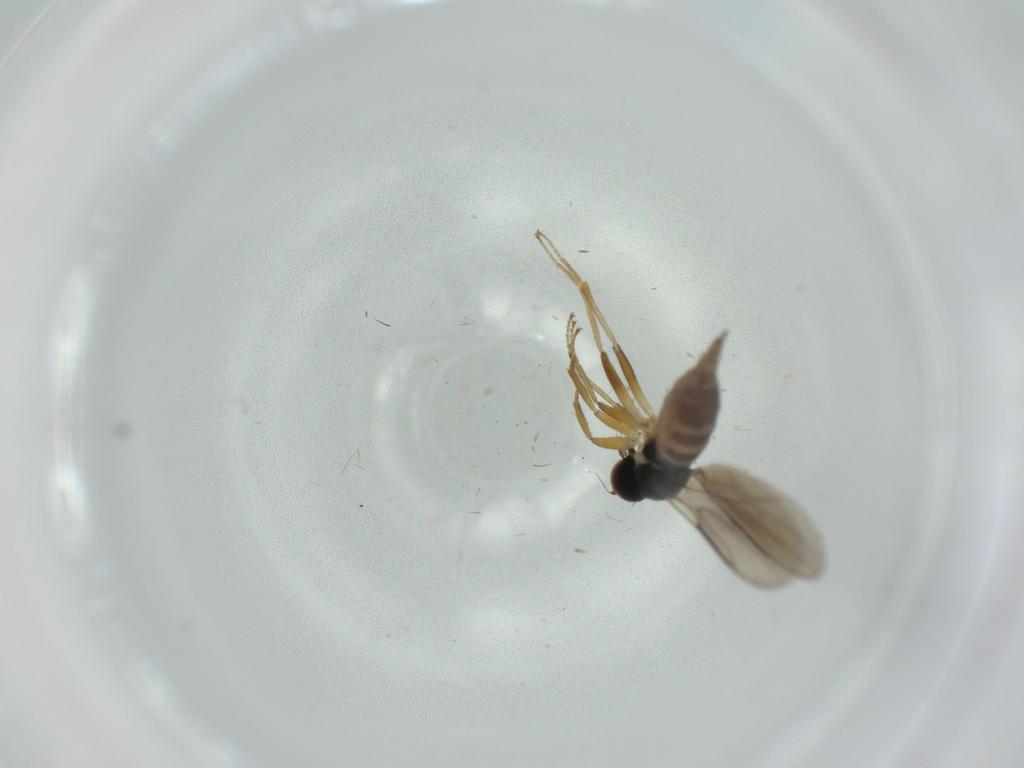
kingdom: Animalia
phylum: Arthropoda
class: Insecta
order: Diptera
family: Hybotidae
